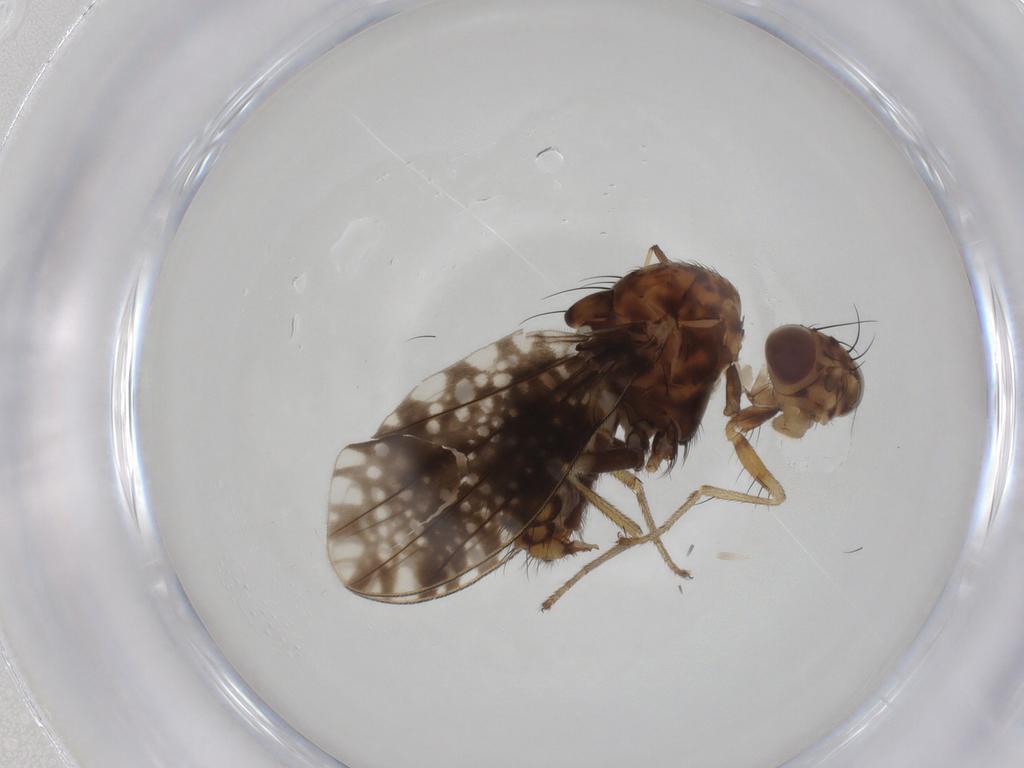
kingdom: Animalia
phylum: Arthropoda
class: Insecta
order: Diptera
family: Lauxaniidae
